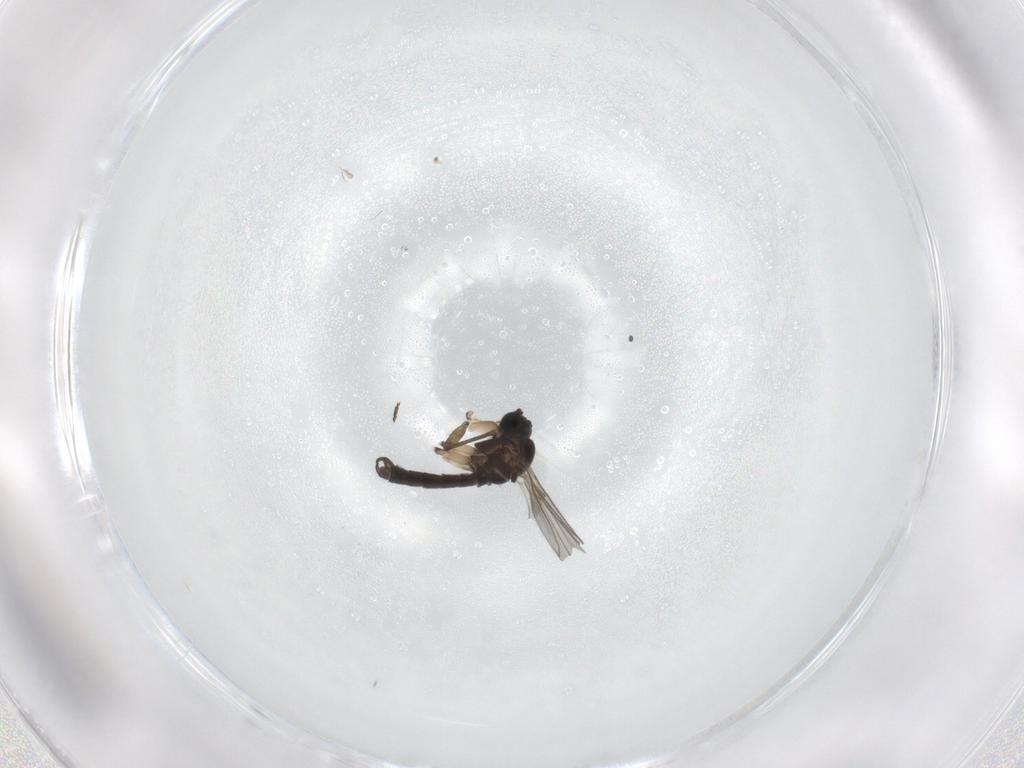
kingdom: Animalia
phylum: Arthropoda
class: Insecta
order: Diptera
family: Sciaridae
